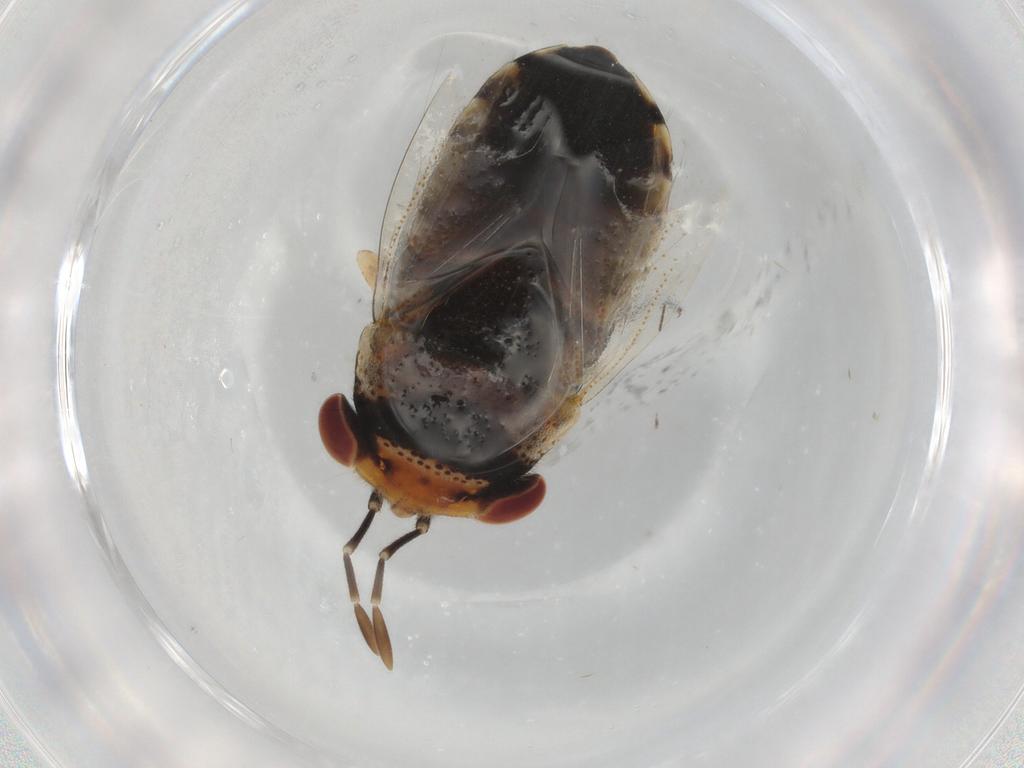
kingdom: Animalia
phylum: Arthropoda
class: Insecta
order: Hemiptera
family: Geocoridae
